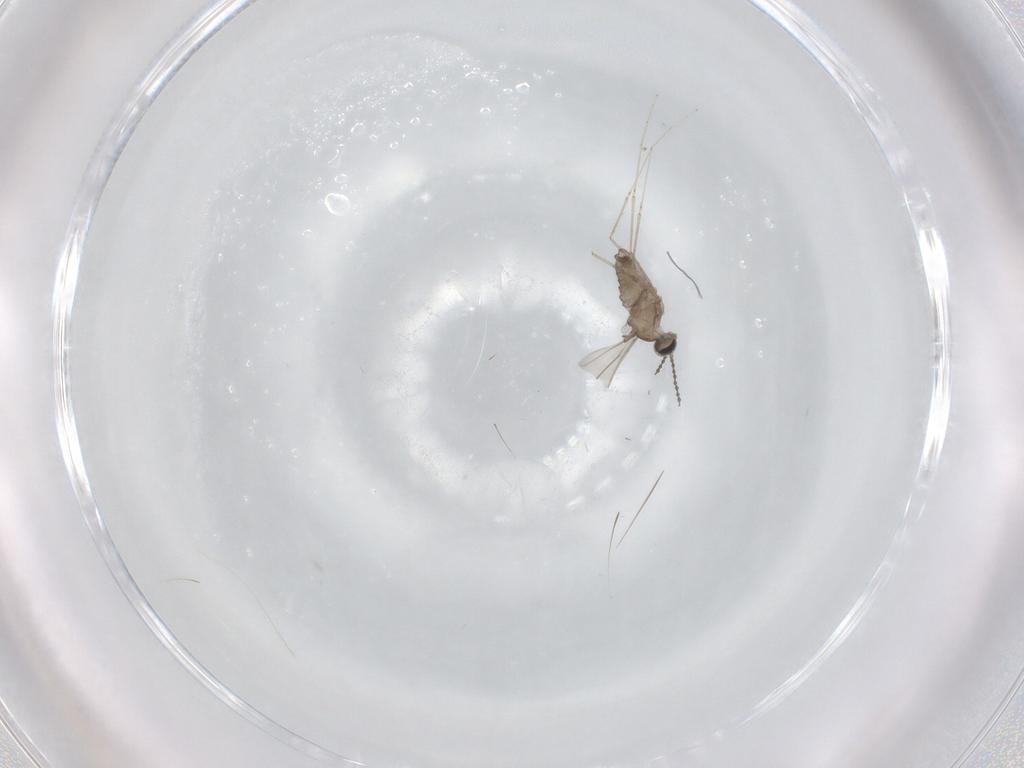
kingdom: Animalia
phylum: Arthropoda
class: Insecta
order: Diptera
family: Cecidomyiidae
